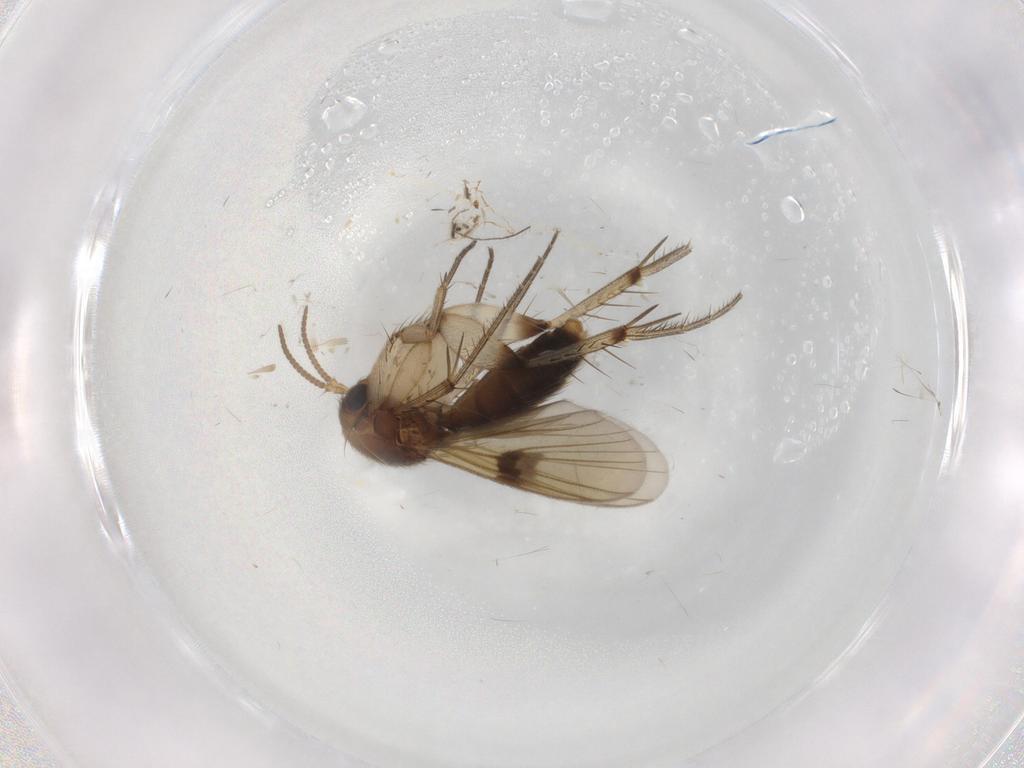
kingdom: Animalia
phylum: Arthropoda
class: Insecta
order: Diptera
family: Mycetophilidae
